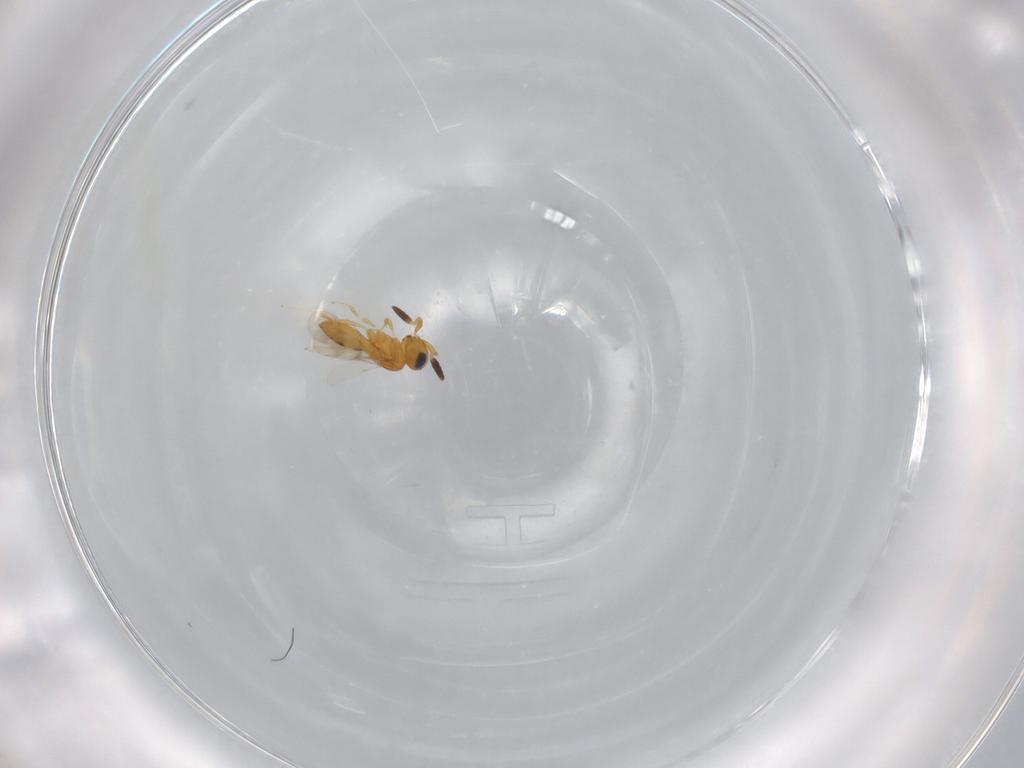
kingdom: Animalia
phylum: Arthropoda
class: Insecta
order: Hymenoptera
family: Scelionidae
